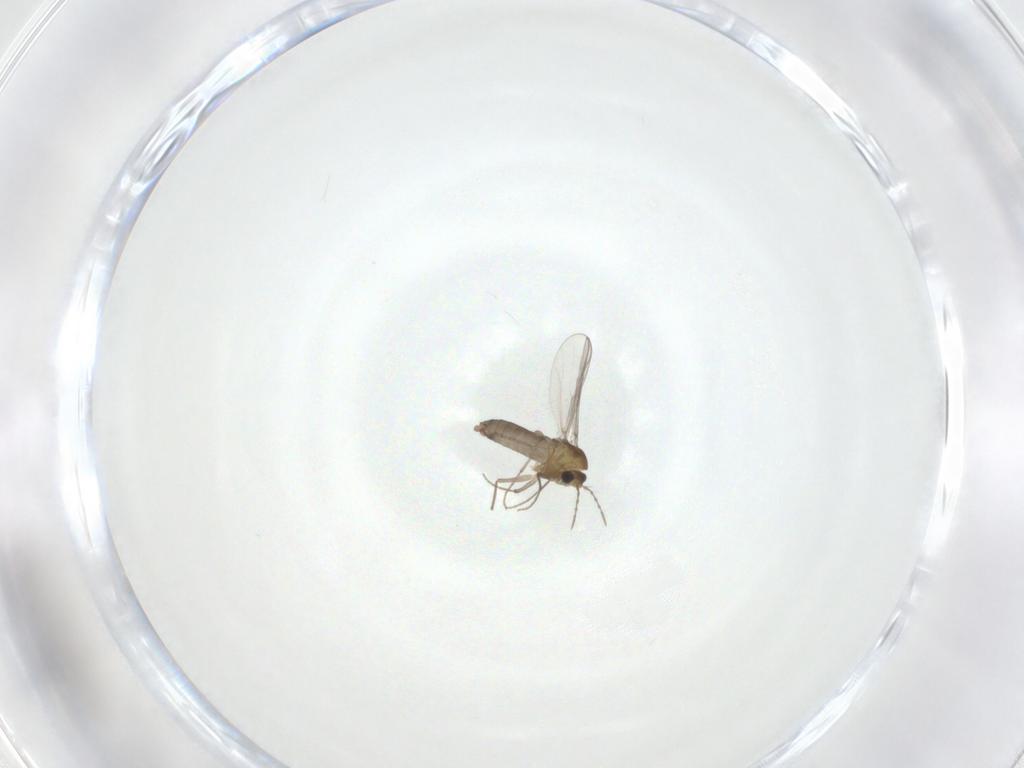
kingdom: Animalia
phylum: Arthropoda
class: Insecta
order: Diptera
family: Chironomidae
